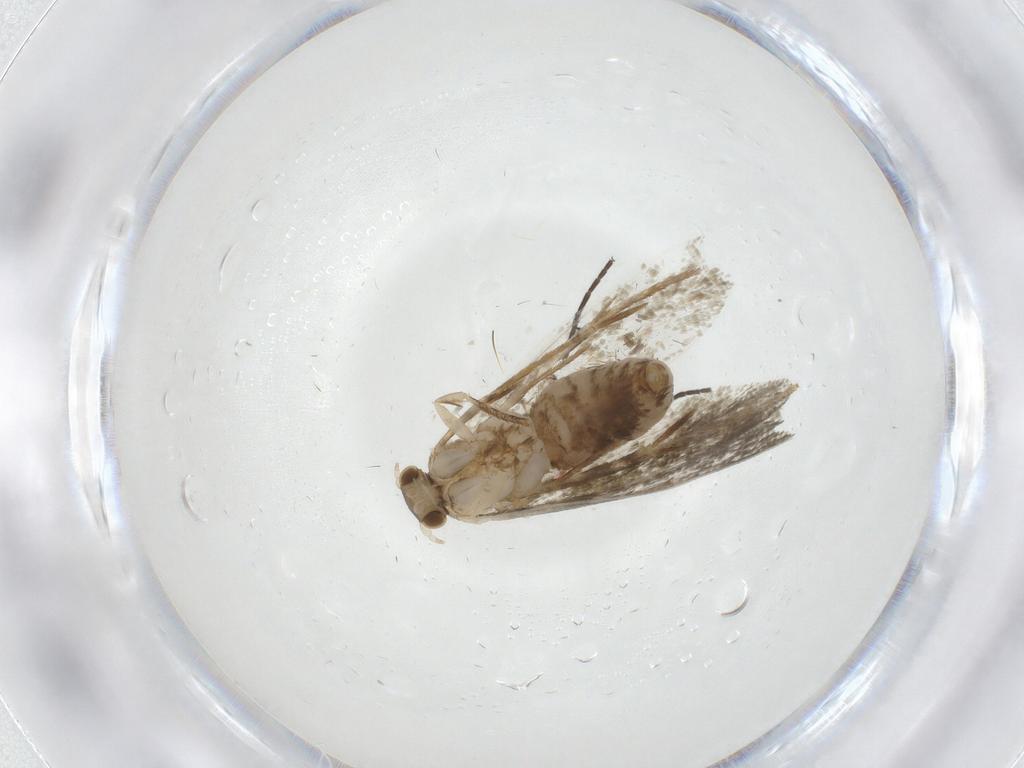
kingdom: Animalia
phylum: Arthropoda
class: Insecta
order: Lepidoptera
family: Tineidae
